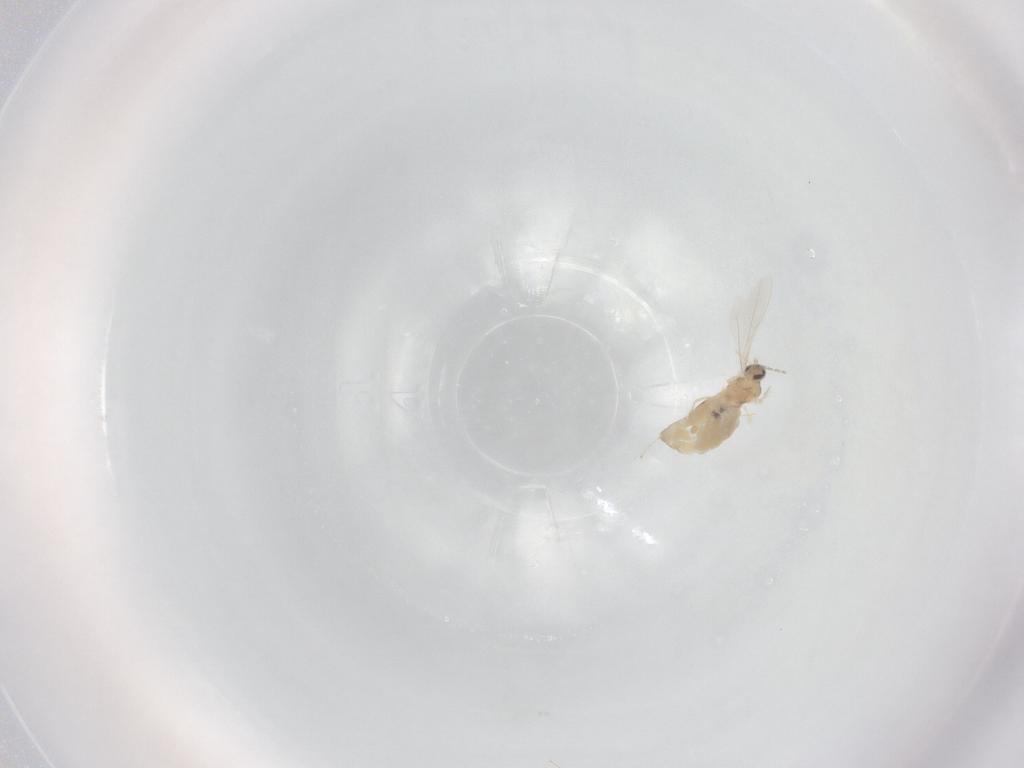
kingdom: Animalia
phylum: Arthropoda
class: Insecta
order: Diptera
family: Cecidomyiidae
